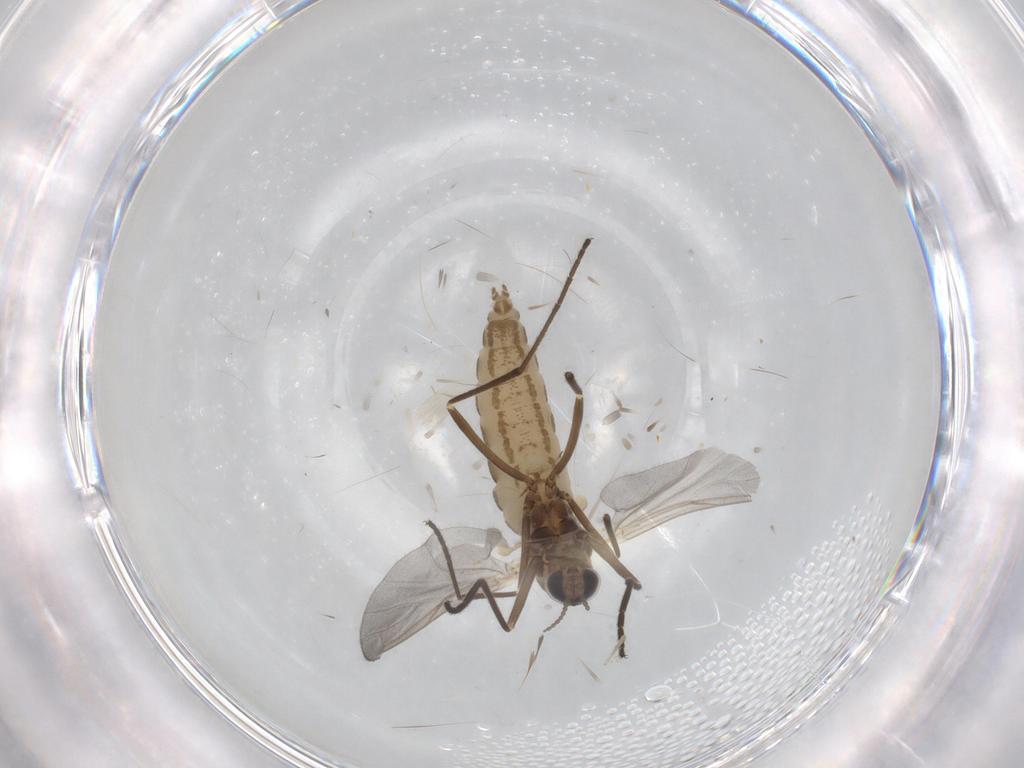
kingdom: Animalia
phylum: Arthropoda
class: Insecta
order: Diptera
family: Cecidomyiidae
